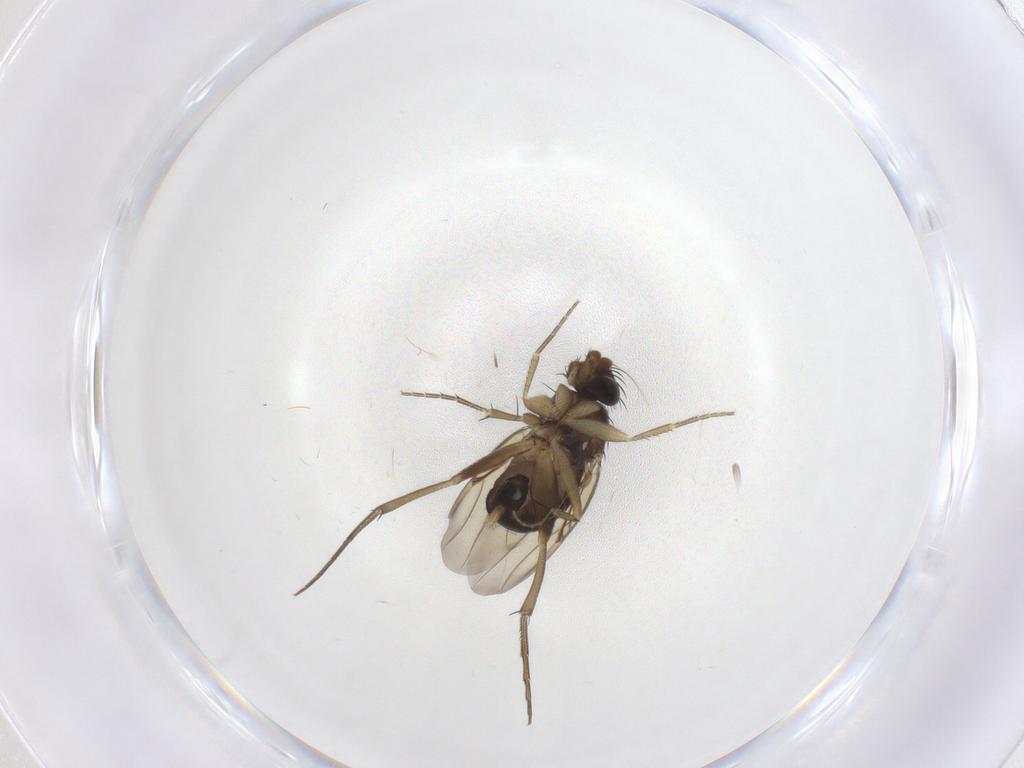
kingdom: Animalia
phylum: Arthropoda
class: Insecta
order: Diptera
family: Phoridae
